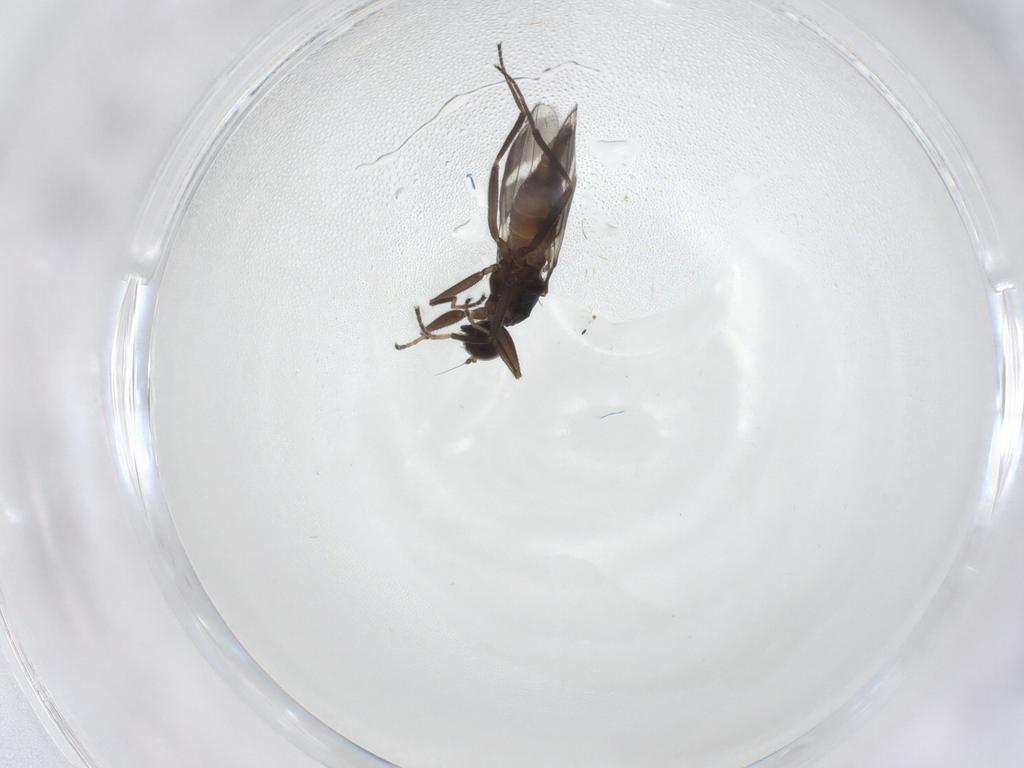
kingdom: Animalia
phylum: Arthropoda
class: Insecta
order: Diptera
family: Hybotidae
